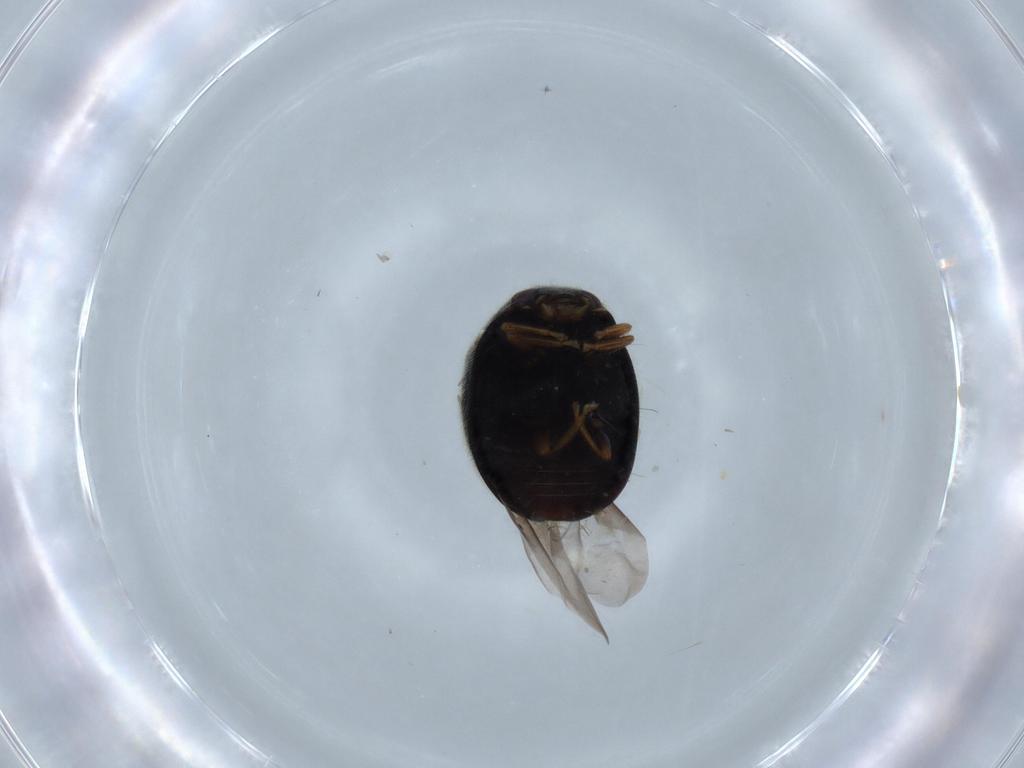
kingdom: Animalia
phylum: Arthropoda
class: Insecta
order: Coleoptera
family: Coccinellidae
